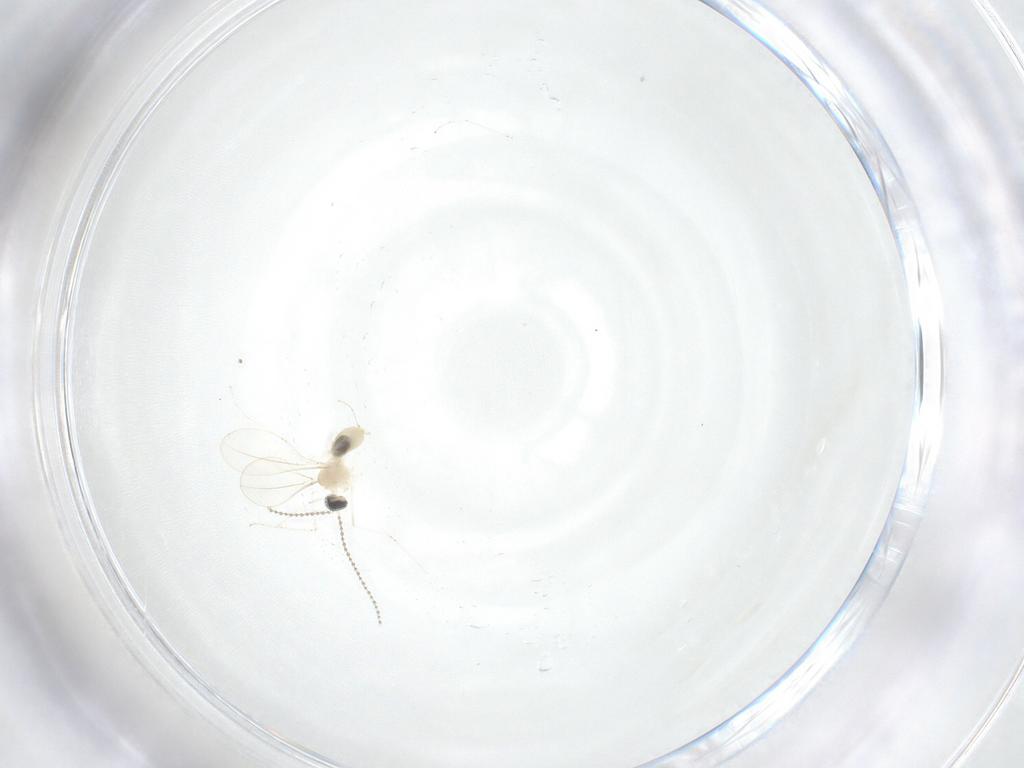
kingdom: Animalia
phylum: Arthropoda
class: Insecta
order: Diptera
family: Cecidomyiidae
